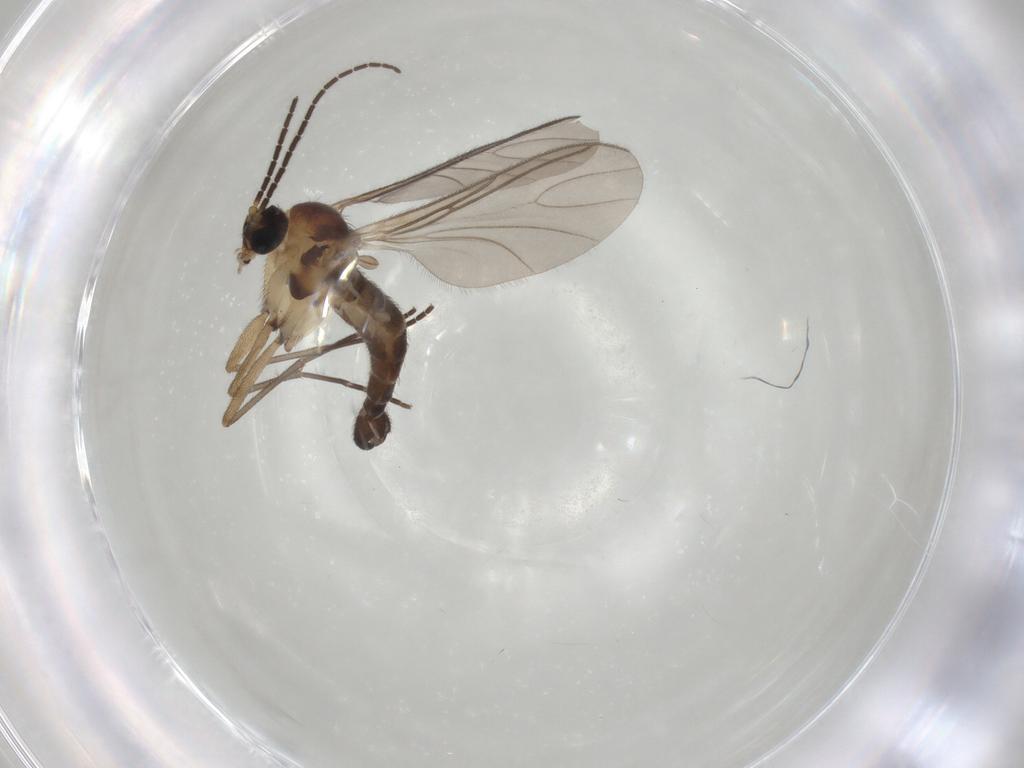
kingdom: Animalia
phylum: Arthropoda
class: Insecta
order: Diptera
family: Sciaridae
